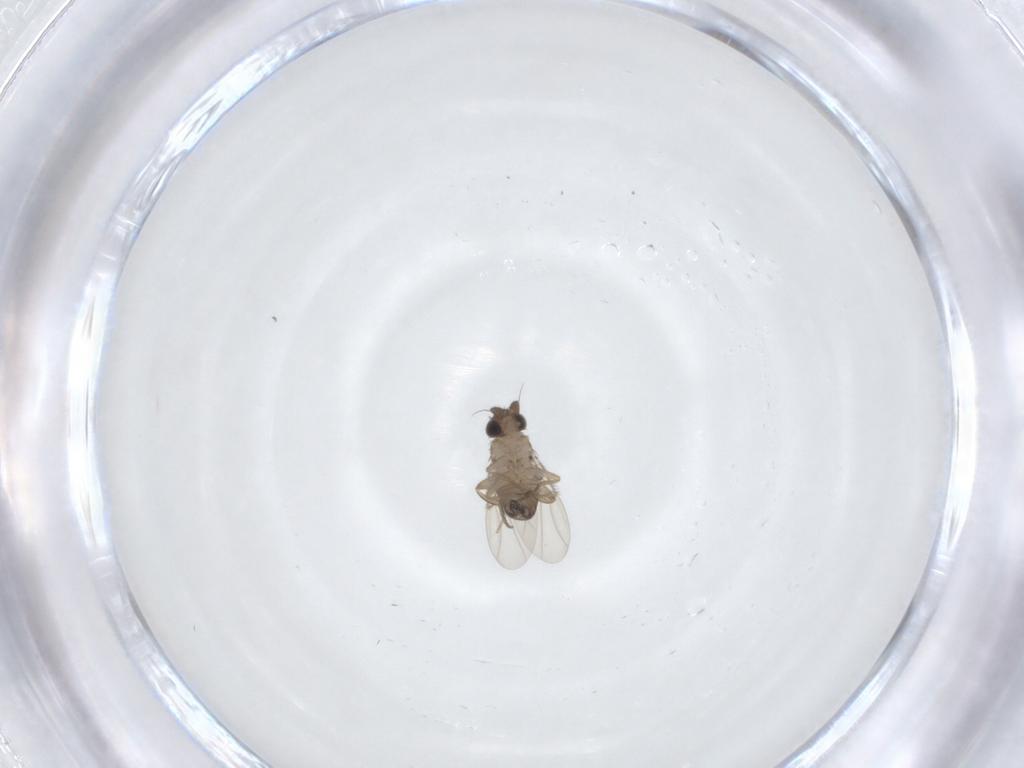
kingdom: Animalia
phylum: Arthropoda
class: Insecta
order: Diptera
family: Phoridae
